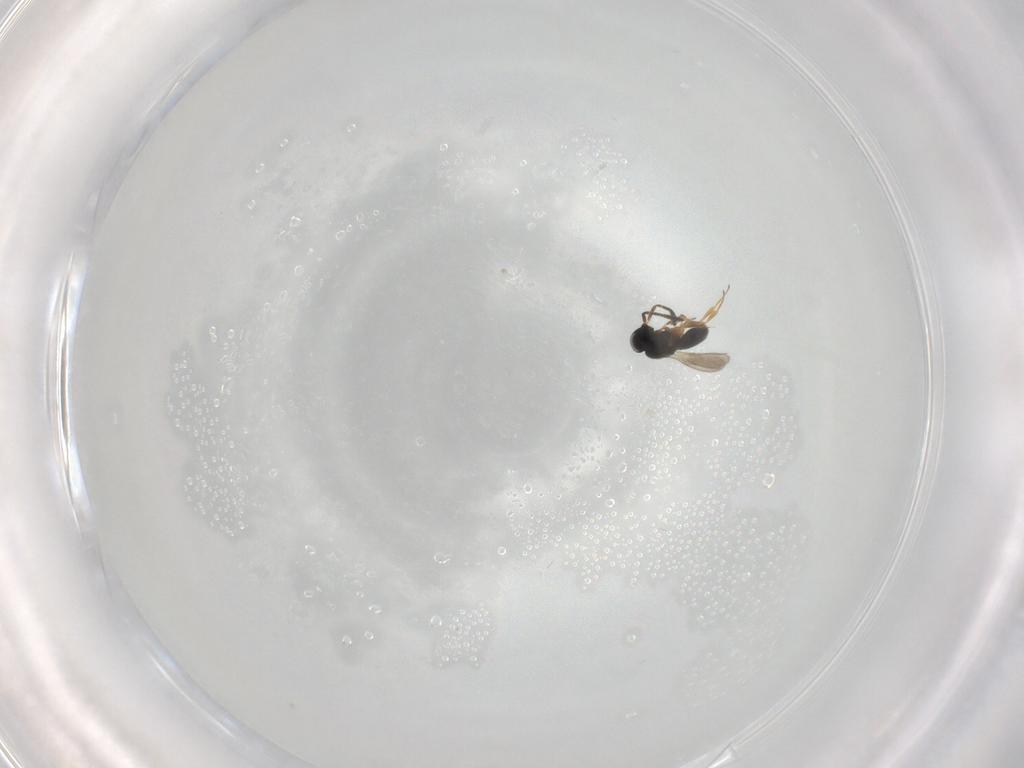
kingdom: Animalia
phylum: Arthropoda
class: Insecta
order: Hymenoptera
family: Scelionidae
